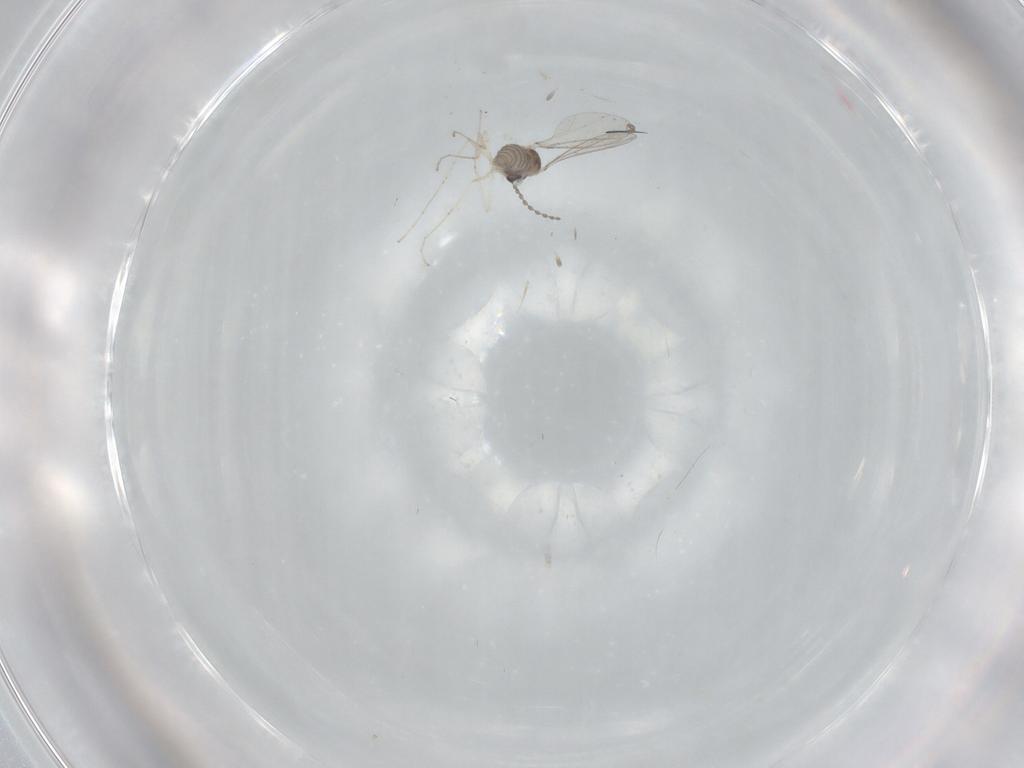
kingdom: Animalia
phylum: Arthropoda
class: Insecta
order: Diptera
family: Cecidomyiidae
